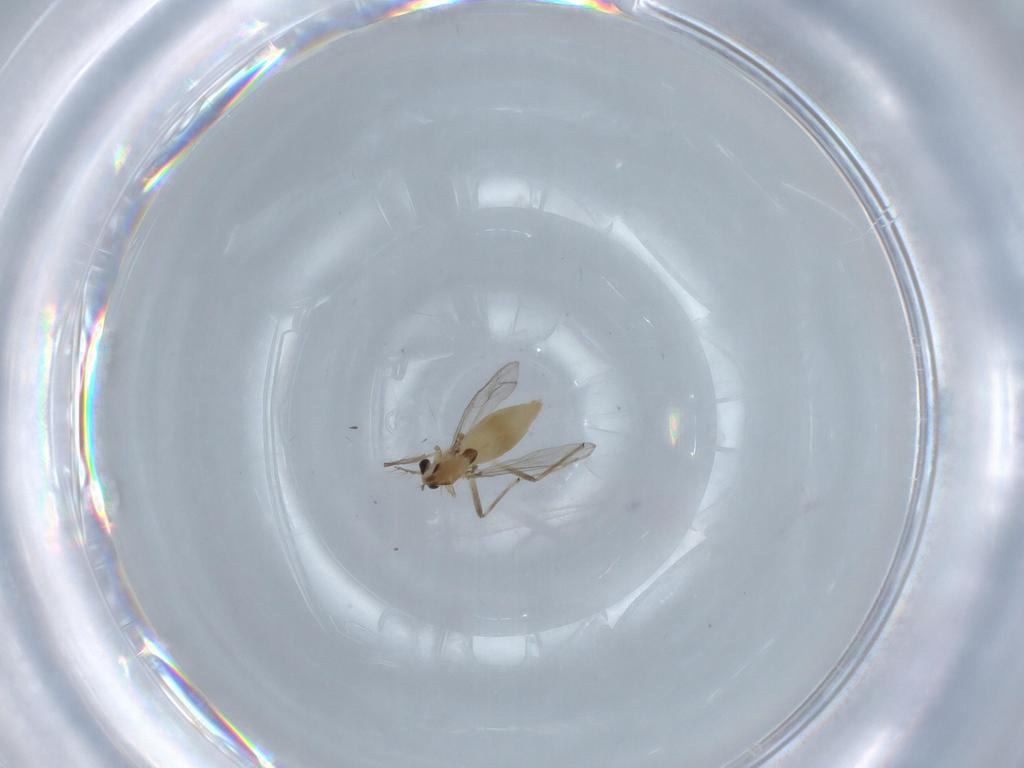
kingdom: Animalia
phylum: Arthropoda
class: Insecta
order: Diptera
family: Chironomidae
